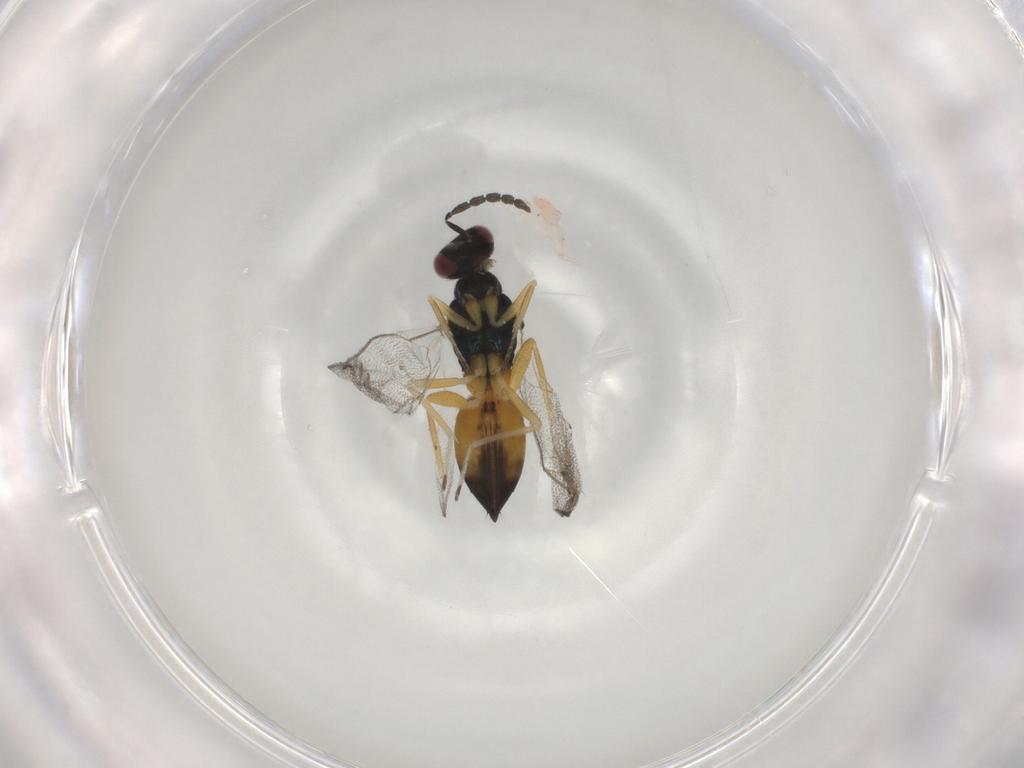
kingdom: Animalia
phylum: Arthropoda
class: Insecta
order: Hymenoptera
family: Eulophidae
